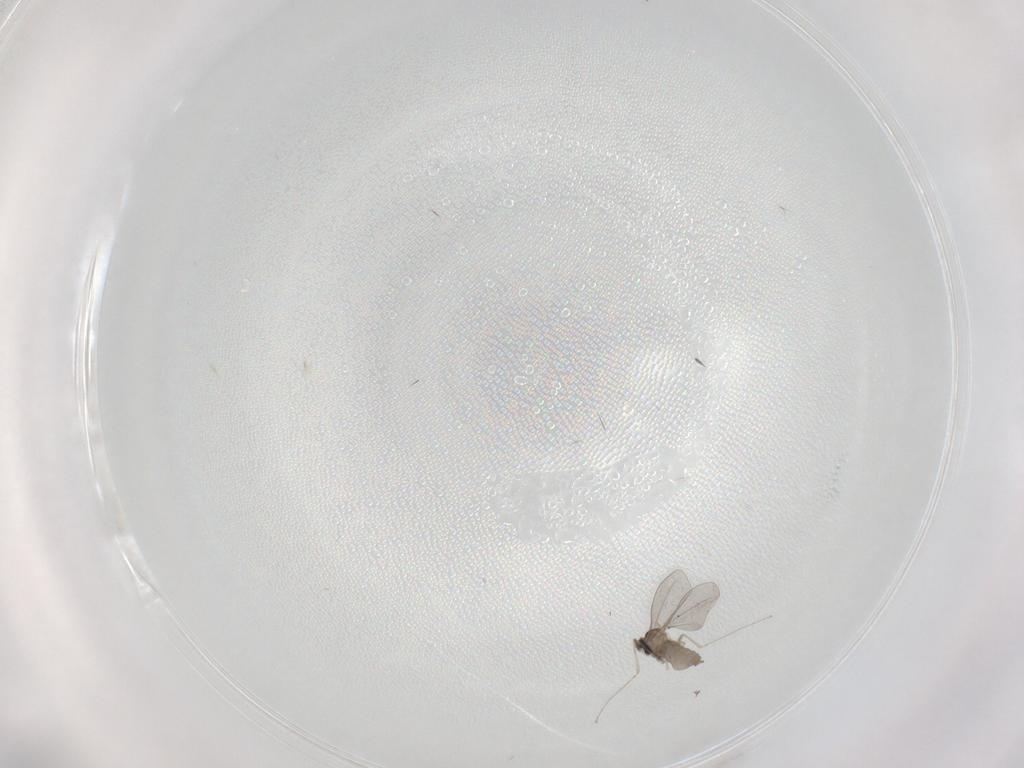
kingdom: Animalia
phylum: Arthropoda
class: Insecta
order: Diptera
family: Cecidomyiidae
